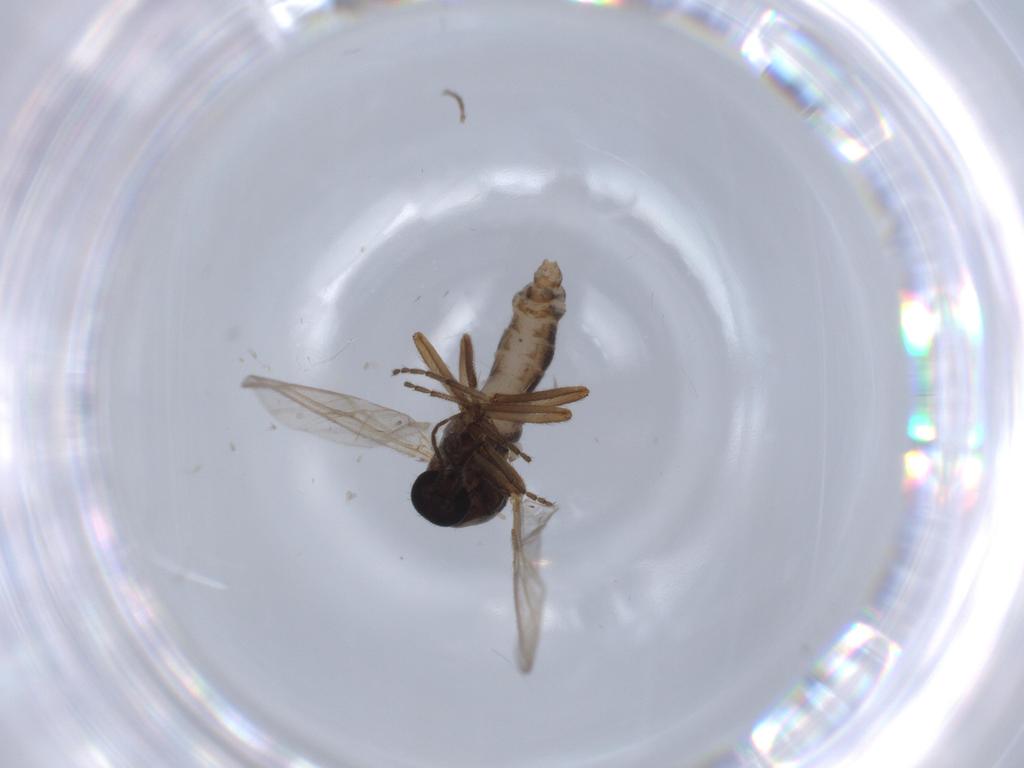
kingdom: Animalia
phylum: Arthropoda
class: Insecta
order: Diptera
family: Ceratopogonidae
